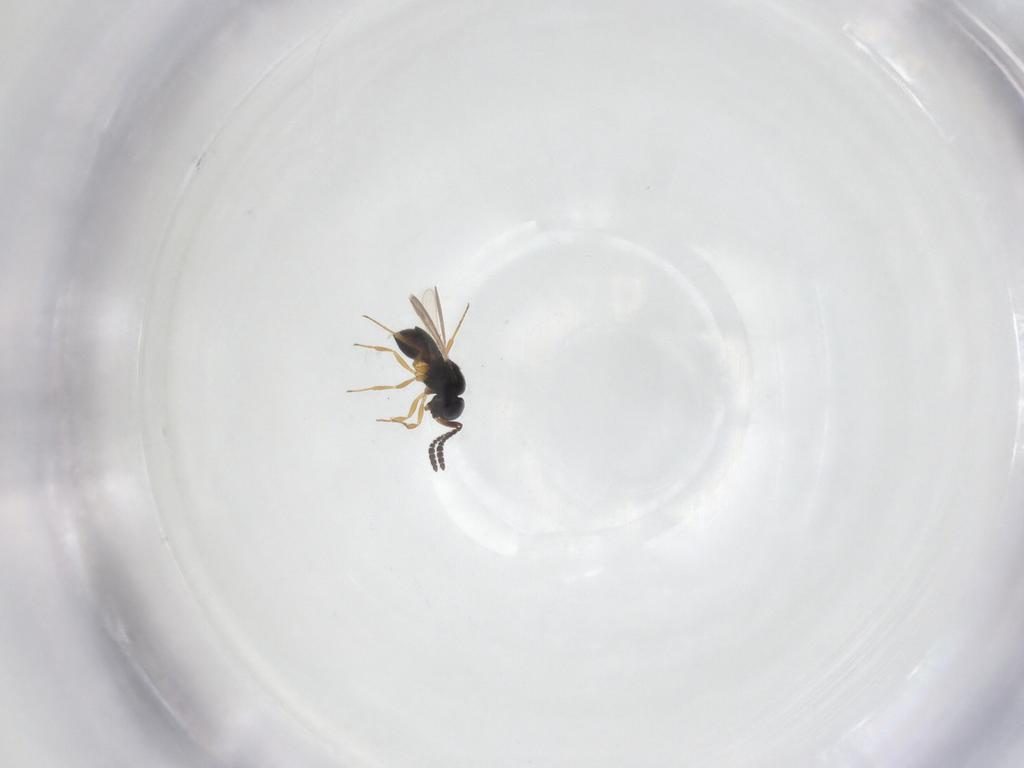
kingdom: Animalia
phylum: Arthropoda
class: Insecta
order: Hymenoptera
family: Scelionidae
